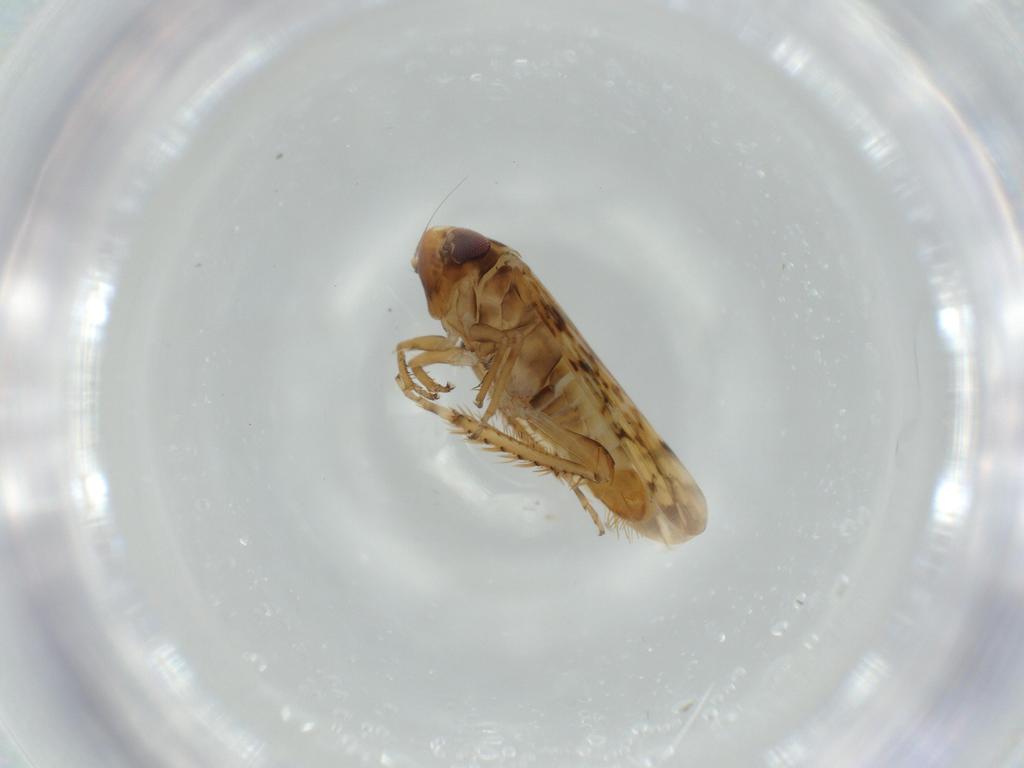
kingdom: Animalia
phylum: Arthropoda
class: Insecta
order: Hemiptera
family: Cicadellidae
